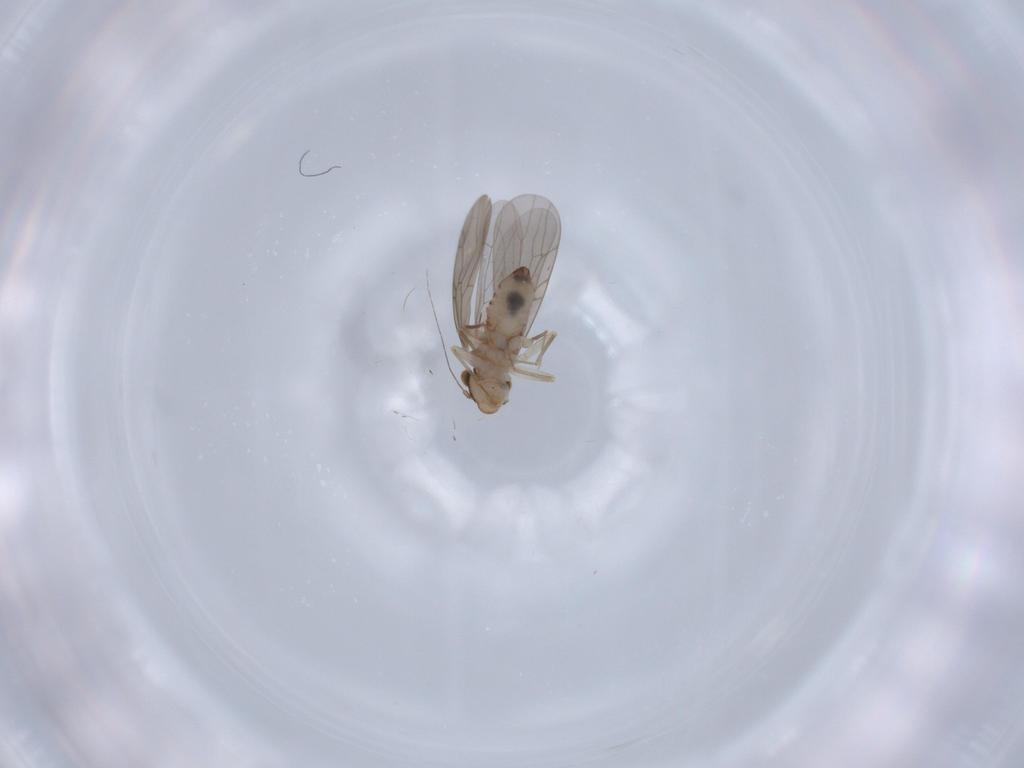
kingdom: Animalia
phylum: Arthropoda
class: Insecta
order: Psocodea
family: Lepidopsocidae
